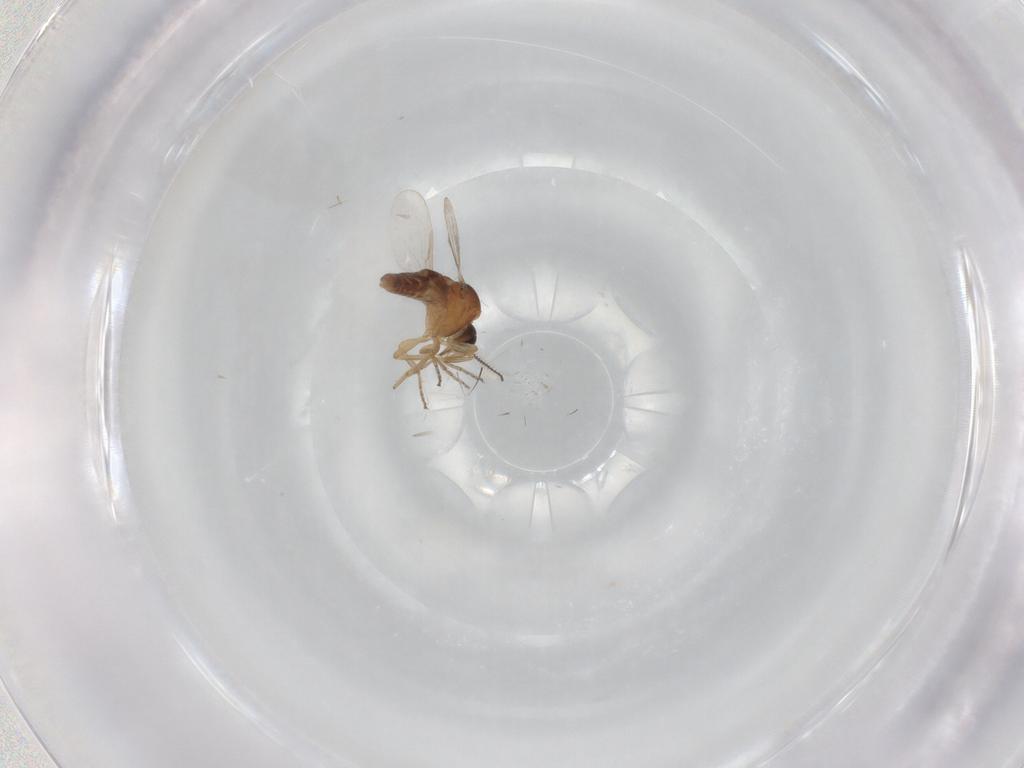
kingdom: Animalia
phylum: Arthropoda
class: Insecta
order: Diptera
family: Ceratopogonidae
